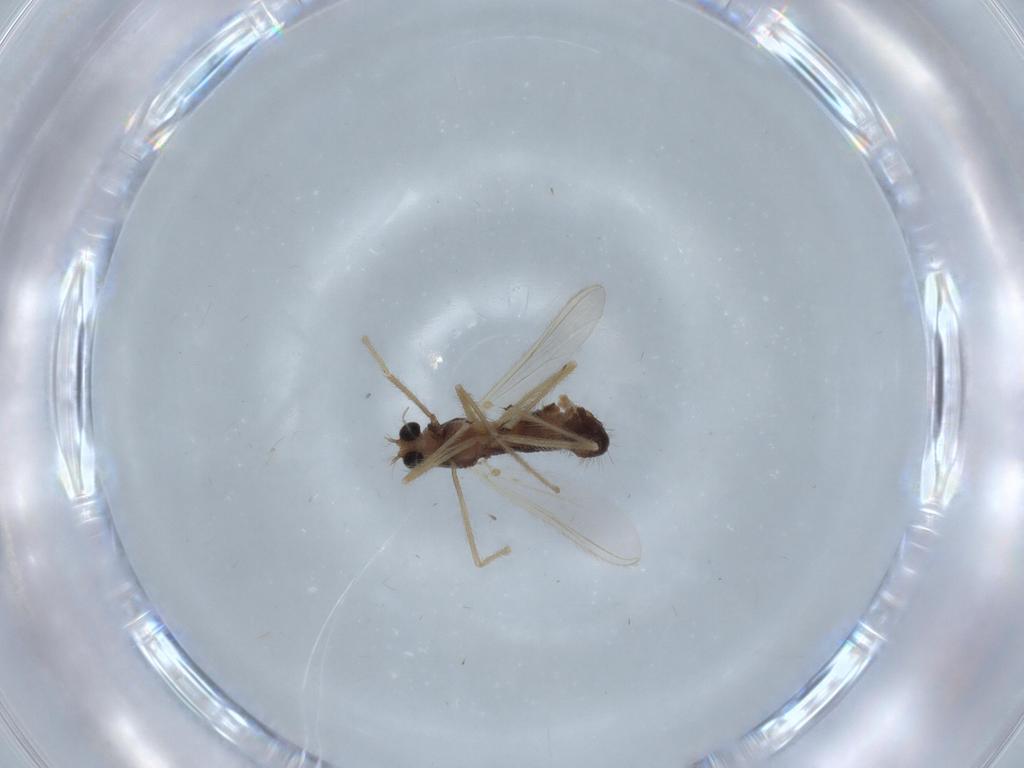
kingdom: Animalia
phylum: Arthropoda
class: Insecta
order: Diptera
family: Chironomidae
